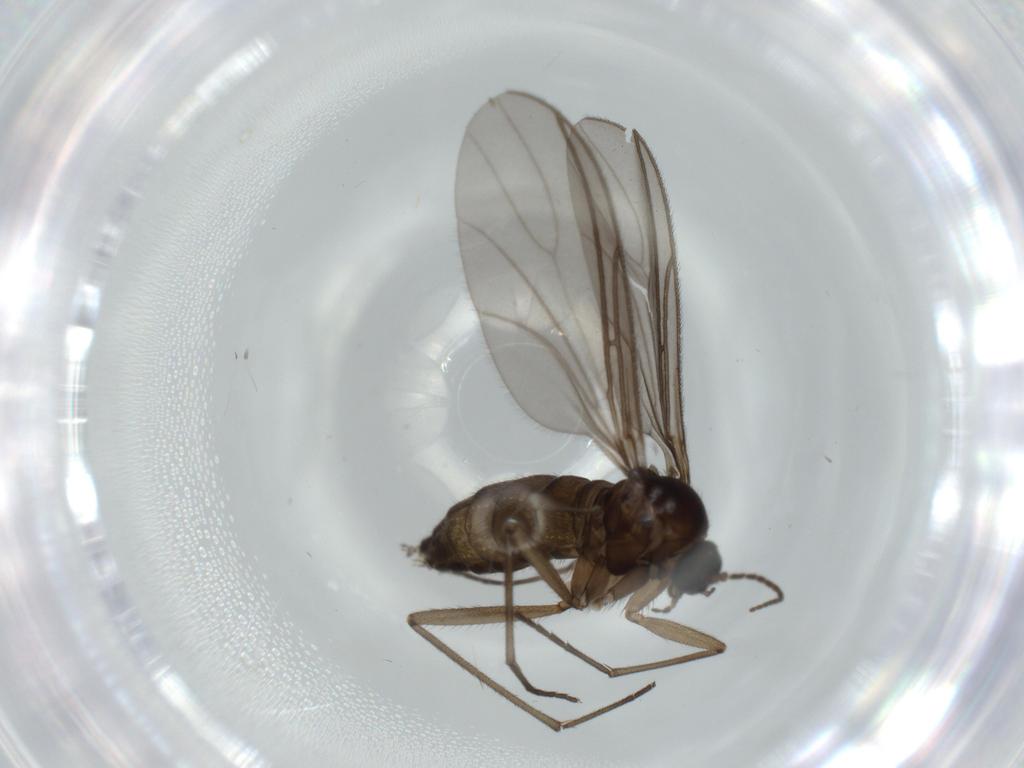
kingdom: Animalia
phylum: Arthropoda
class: Insecta
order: Diptera
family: Sciaridae
